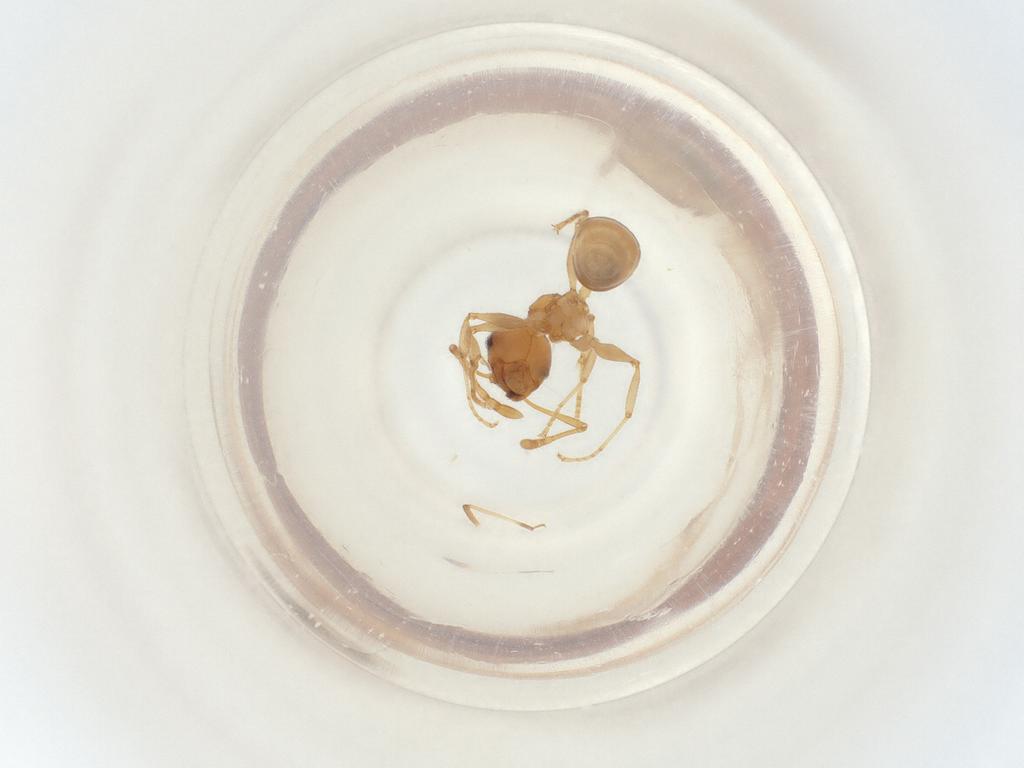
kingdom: Animalia
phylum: Arthropoda
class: Insecta
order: Hymenoptera
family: Formicidae
